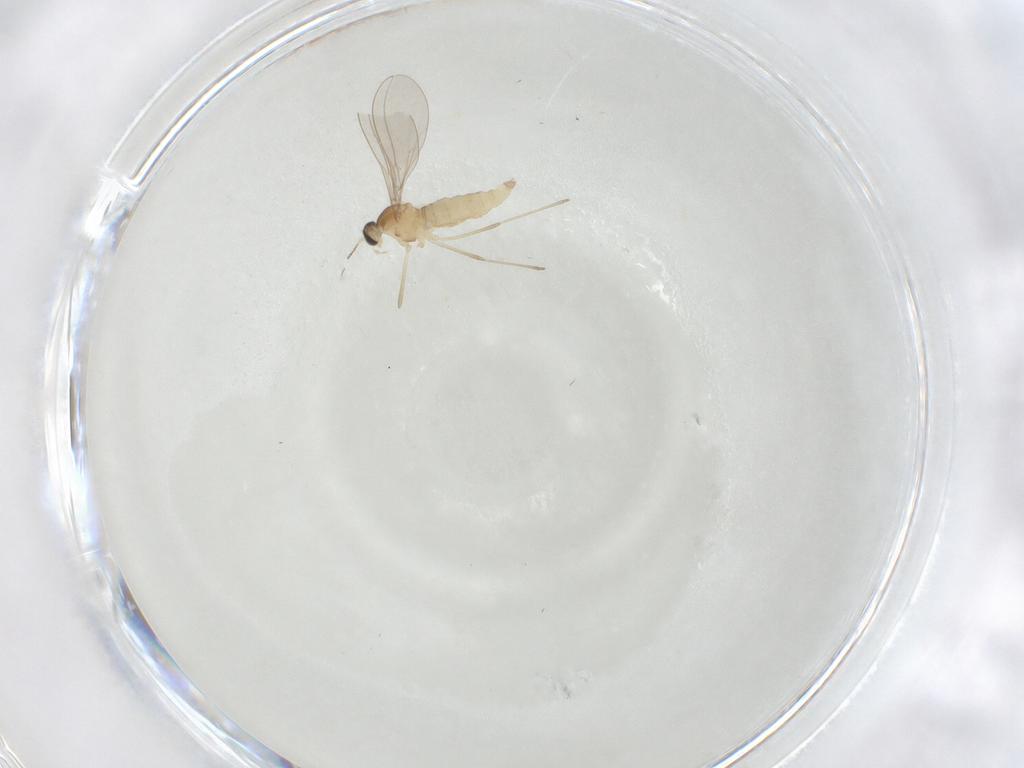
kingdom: Animalia
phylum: Arthropoda
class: Insecta
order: Diptera
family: Cecidomyiidae
